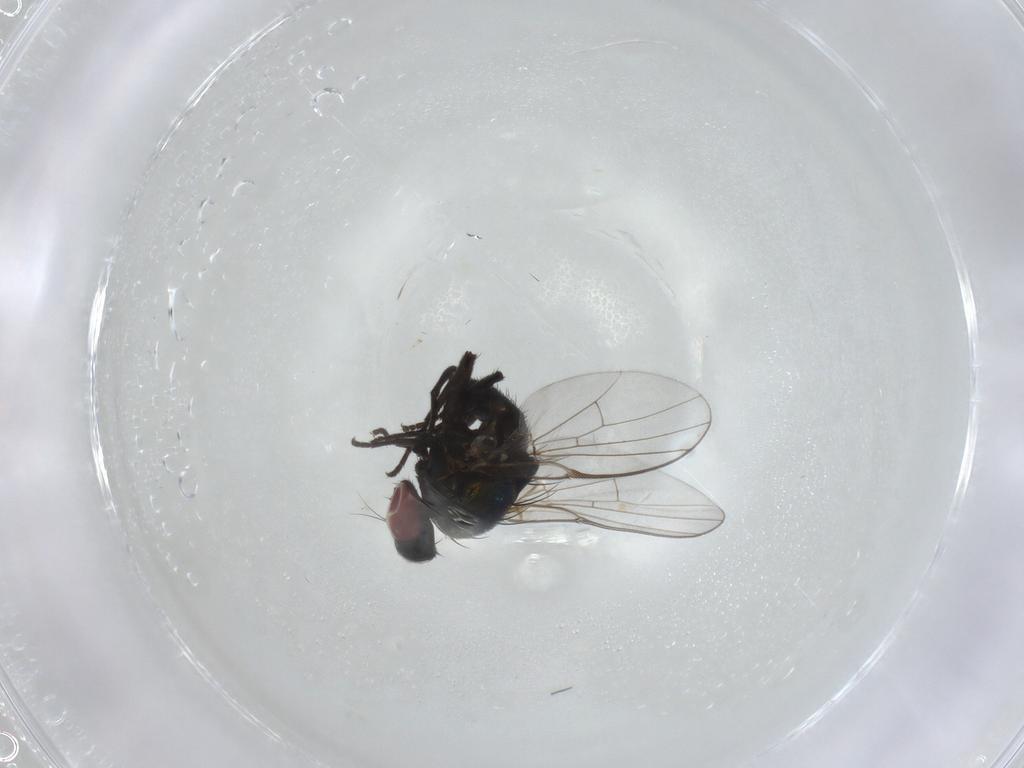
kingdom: Animalia
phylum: Arthropoda
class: Insecta
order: Diptera
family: Agromyzidae
